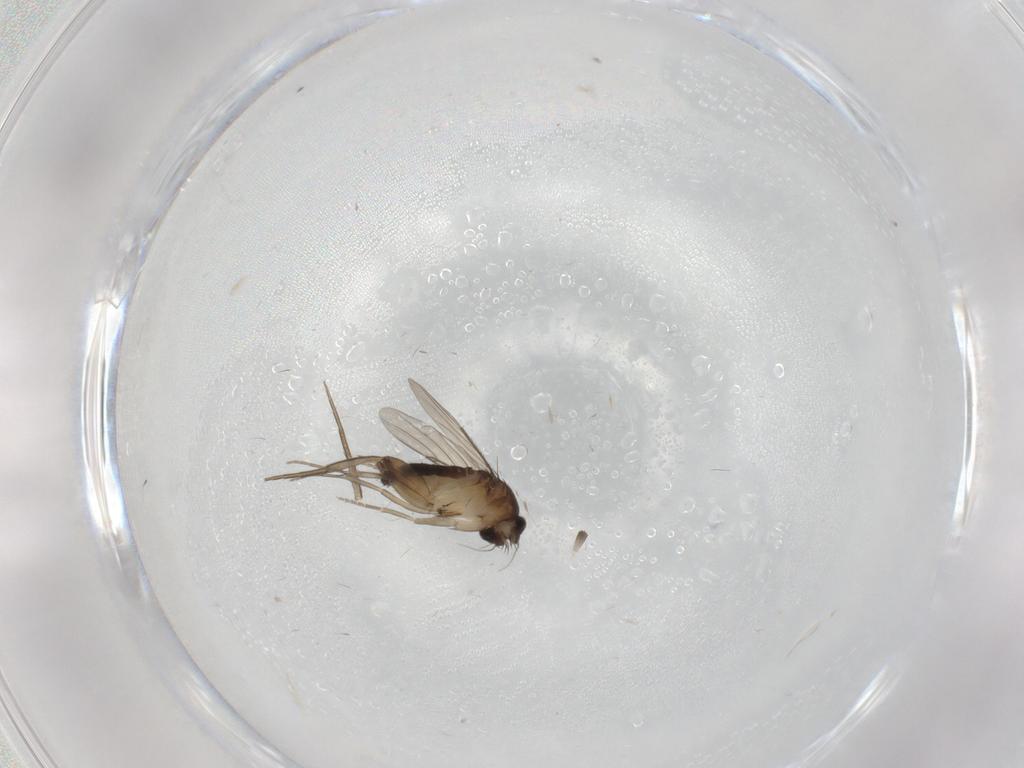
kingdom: Animalia
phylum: Arthropoda
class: Insecta
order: Diptera
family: Phoridae
